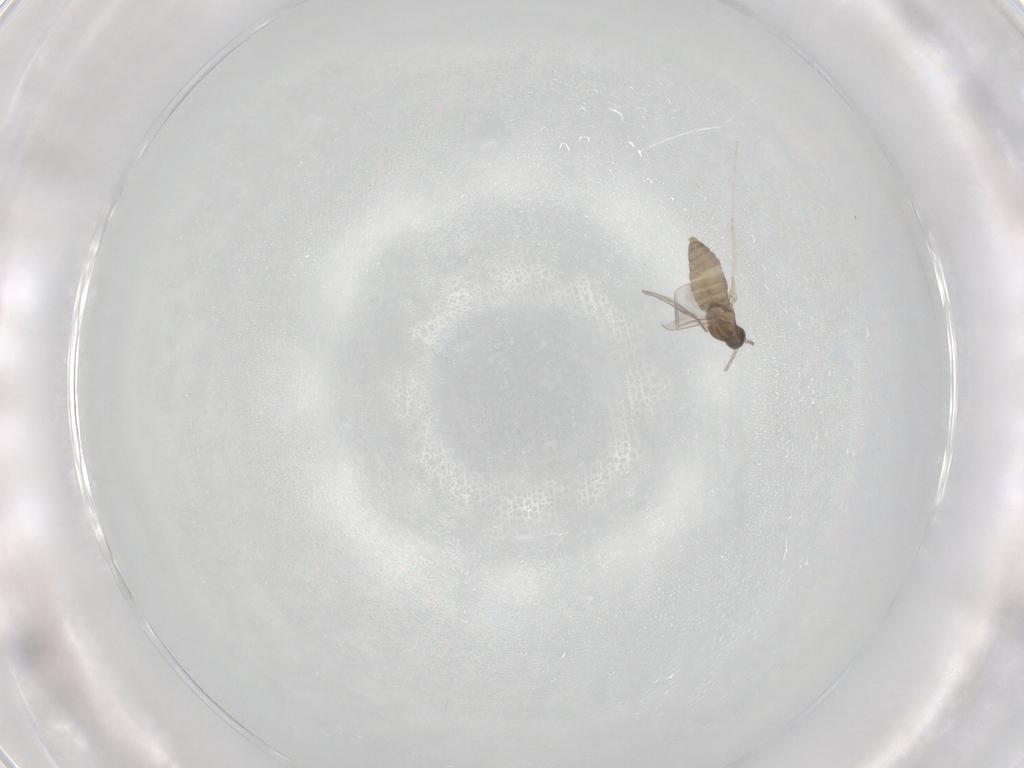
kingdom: Animalia
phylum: Arthropoda
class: Insecta
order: Diptera
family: Cecidomyiidae
